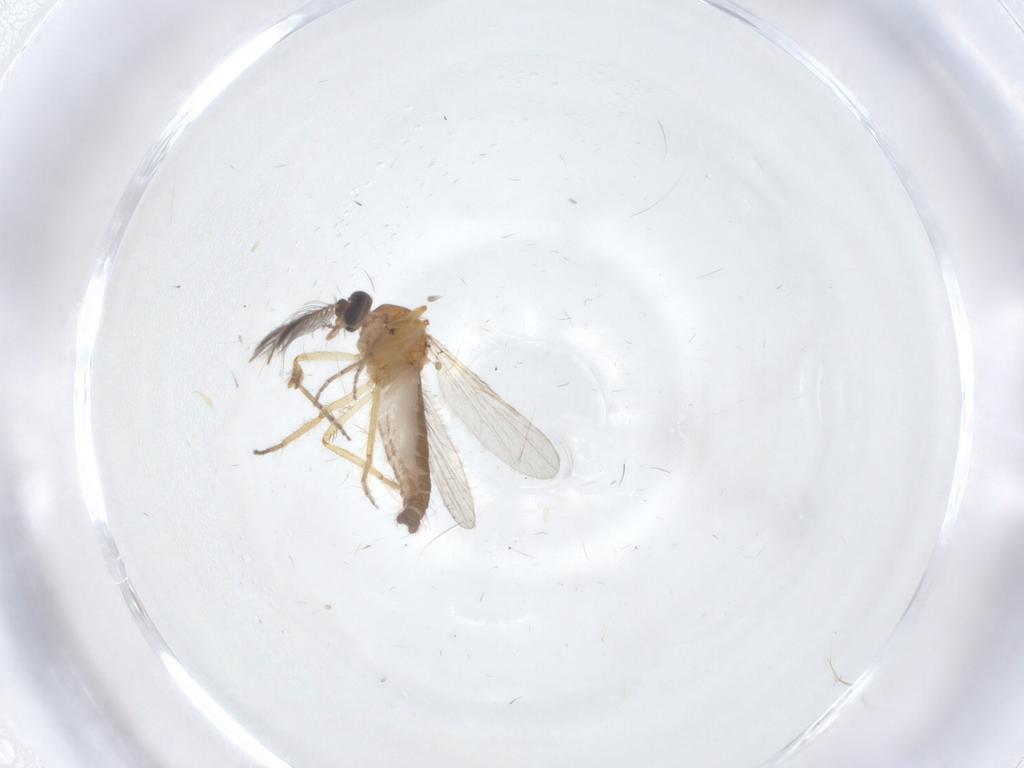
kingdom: Animalia
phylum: Arthropoda
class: Insecta
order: Diptera
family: Ceratopogonidae
